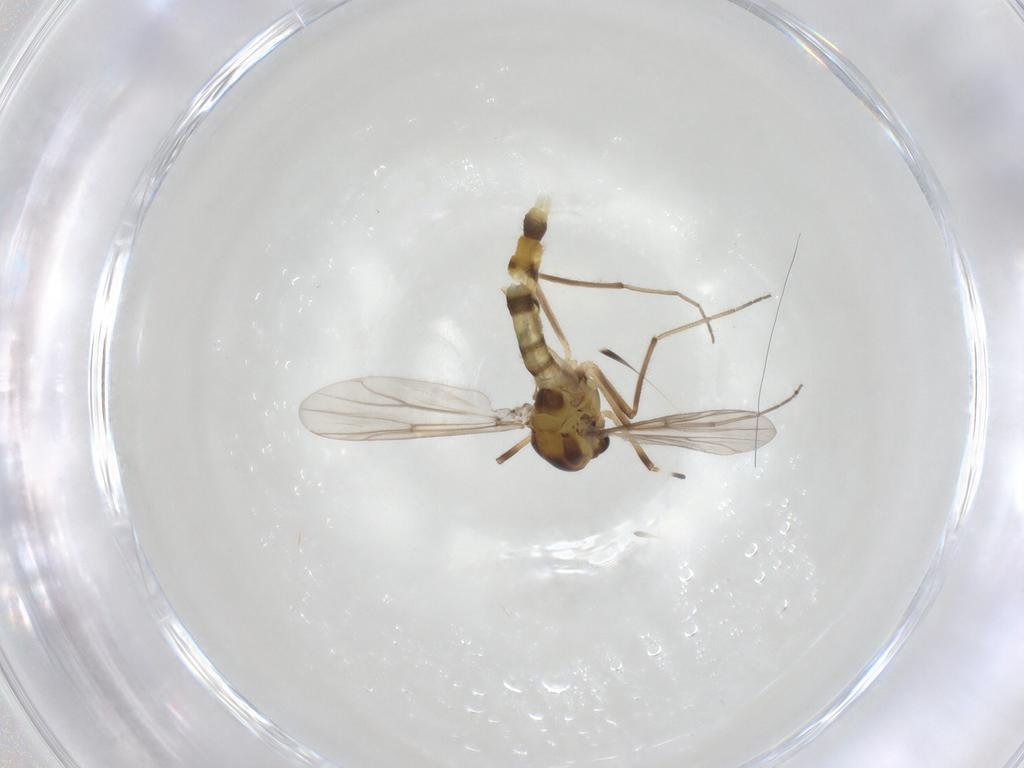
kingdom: Animalia
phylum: Arthropoda
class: Insecta
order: Diptera
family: Chironomidae
